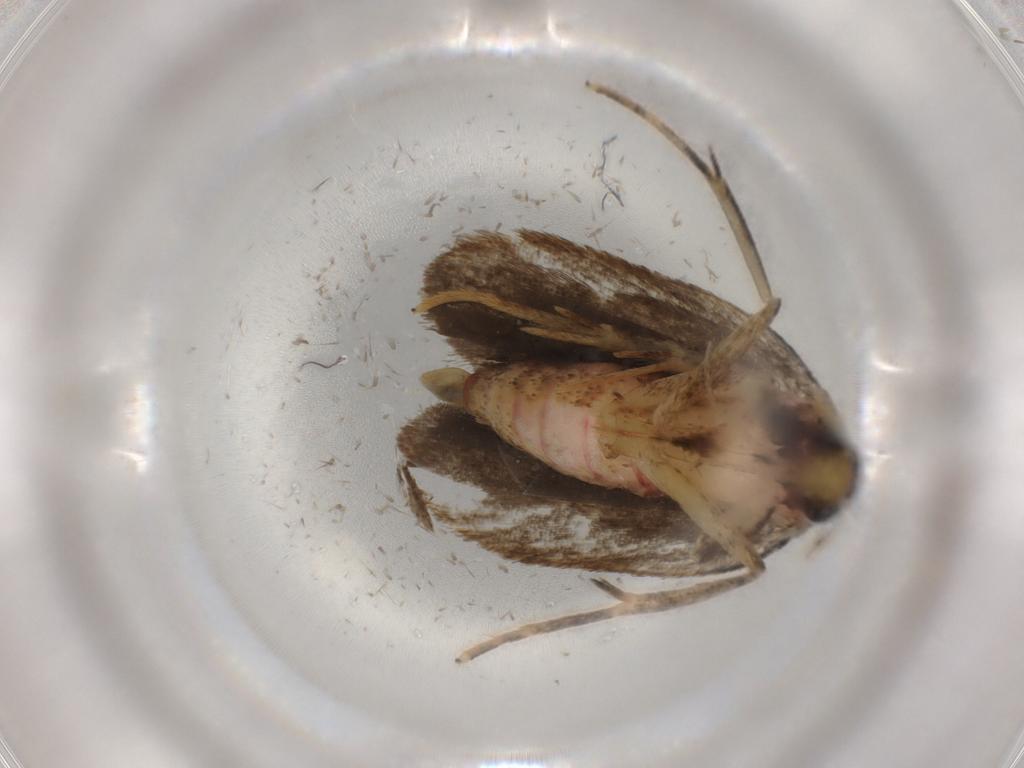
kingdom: Animalia
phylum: Arthropoda
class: Insecta
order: Lepidoptera
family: Autostichidae
